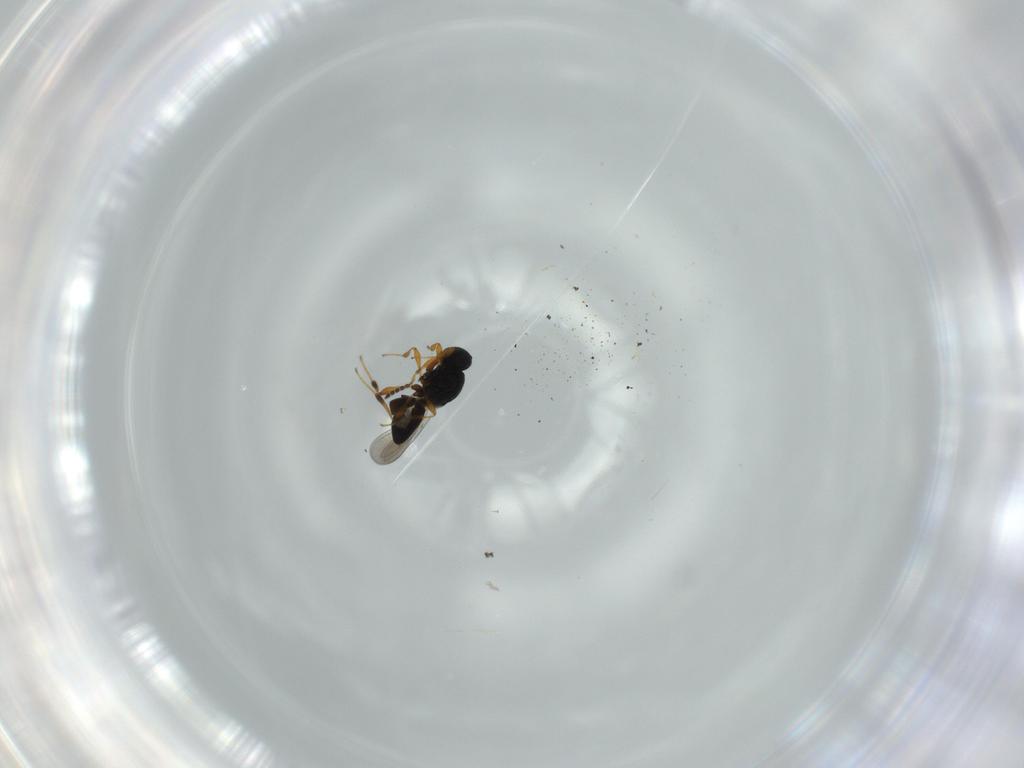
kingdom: Animalia
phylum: Arthropoda
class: Insecta
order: Hymenoptera
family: Platygastridae
